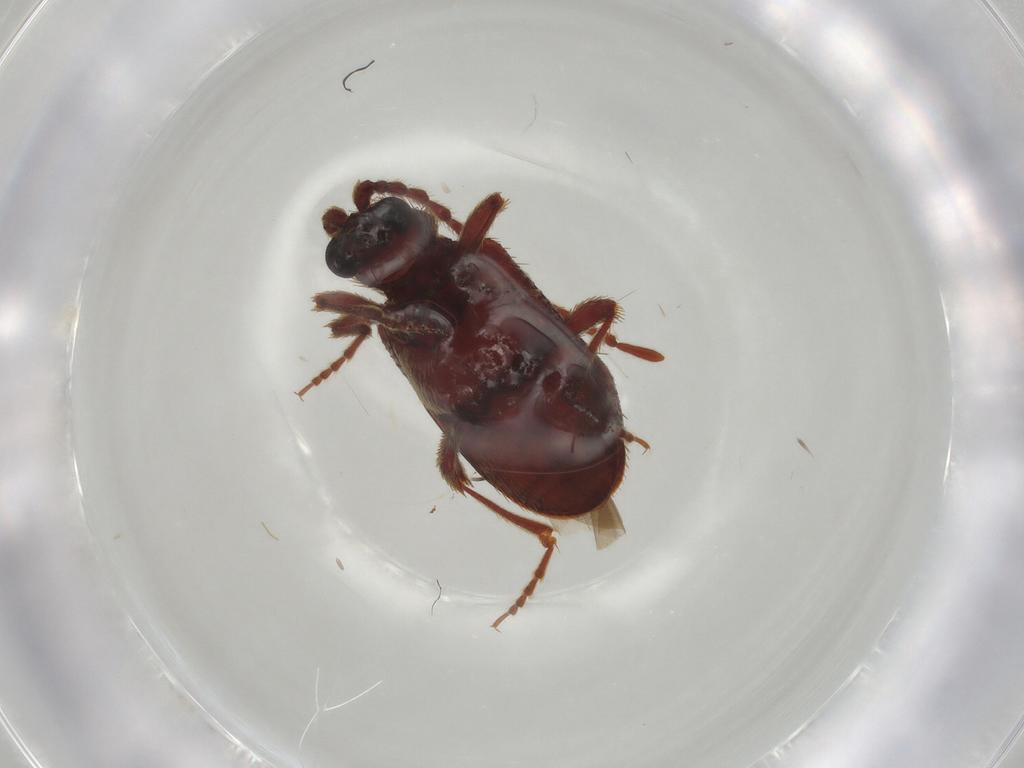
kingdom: Animalia
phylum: Arthropoda
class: Insecta
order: Coleoptera
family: Ptinidae
